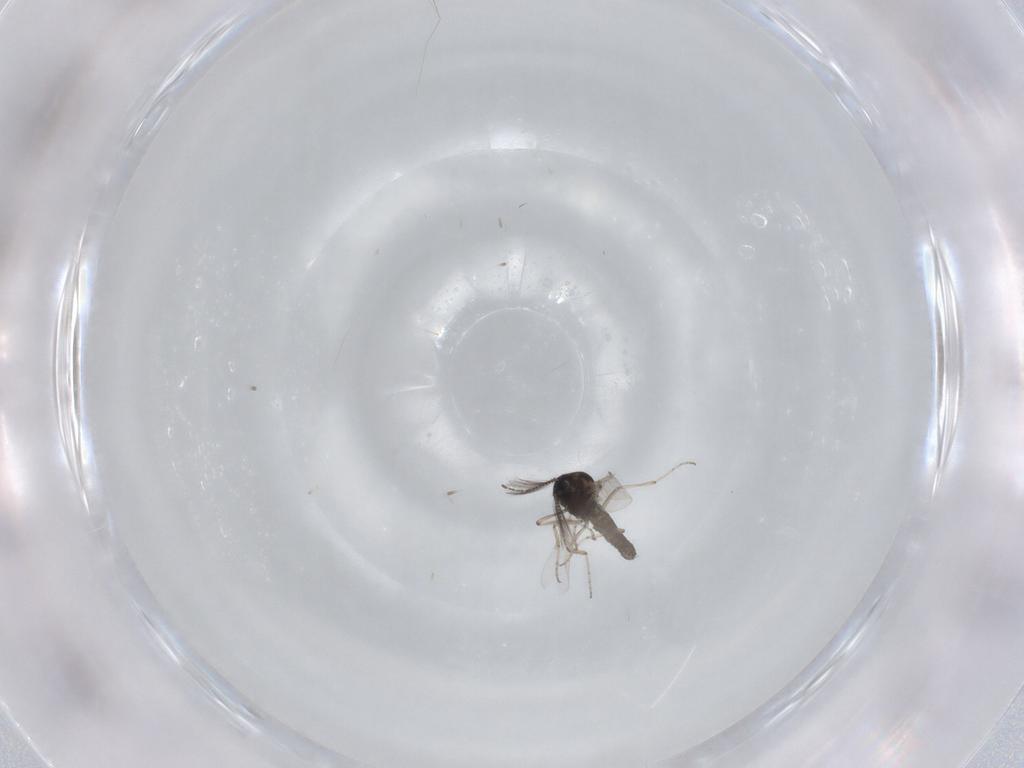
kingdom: Animalia
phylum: Arthropoda
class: Insecta
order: Diptera
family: Ceratopogonidae
